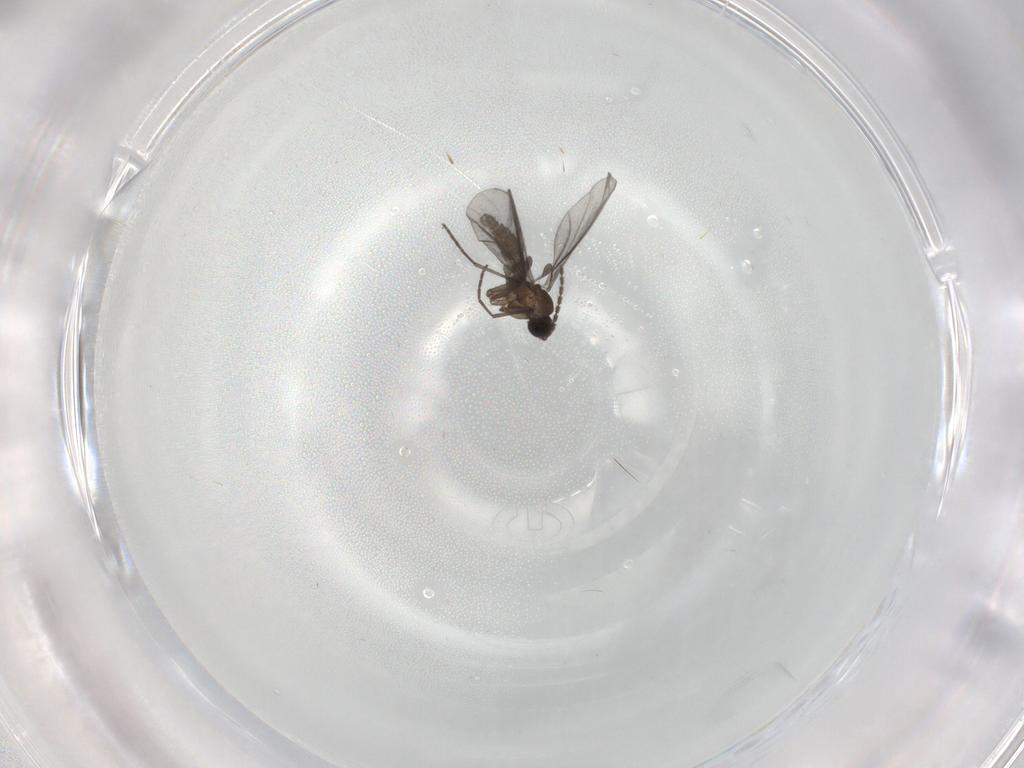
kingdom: Animalia
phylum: Arthropoda
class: Insecta
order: Diptera
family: Sciaridae
